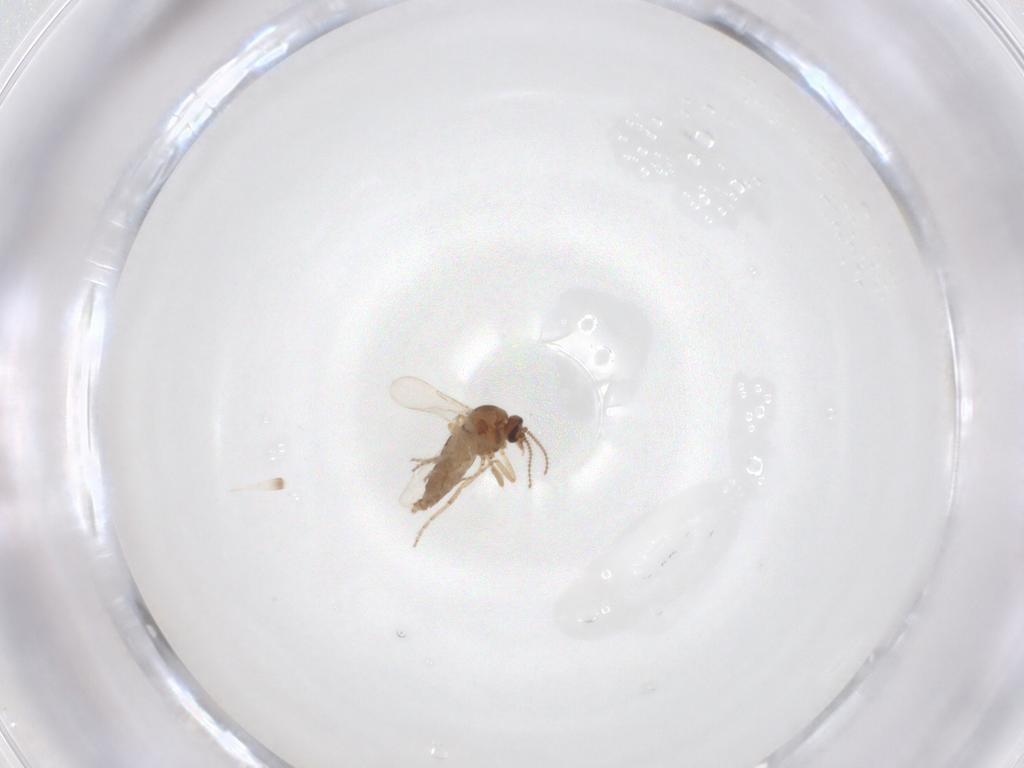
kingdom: Animalia
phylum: Arthropoda
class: Insecta
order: Diptera
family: Ceratopogonidae
